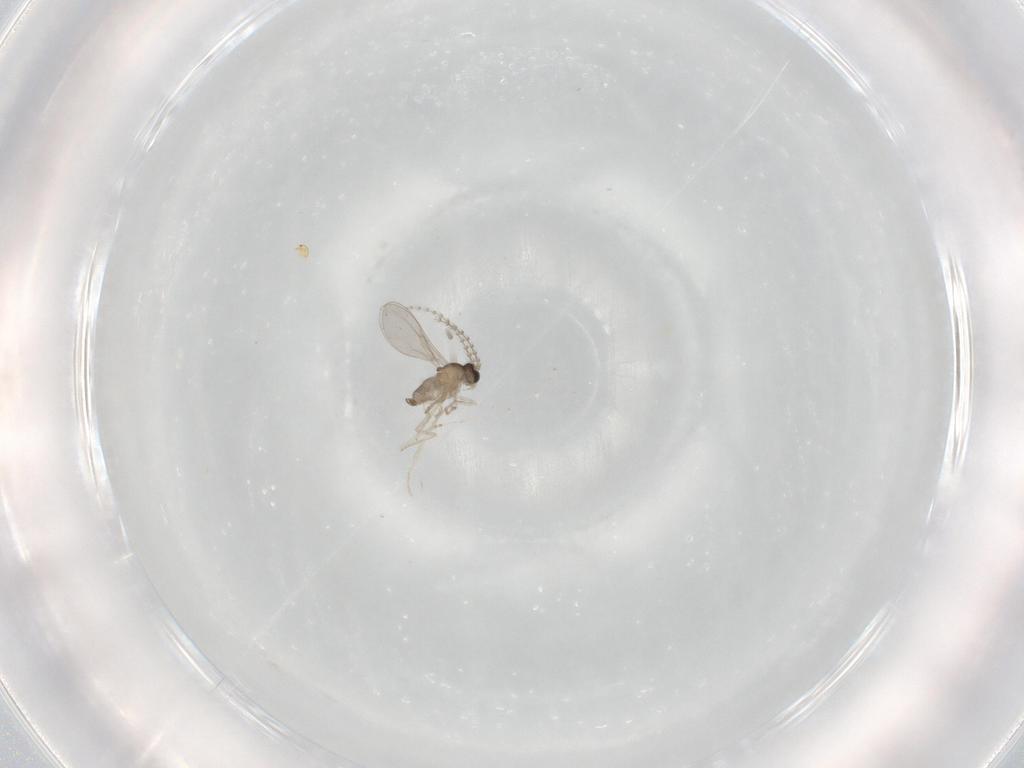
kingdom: Animalia
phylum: Arthropoda
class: Insecta
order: Diptera
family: Cecidomyiidae
